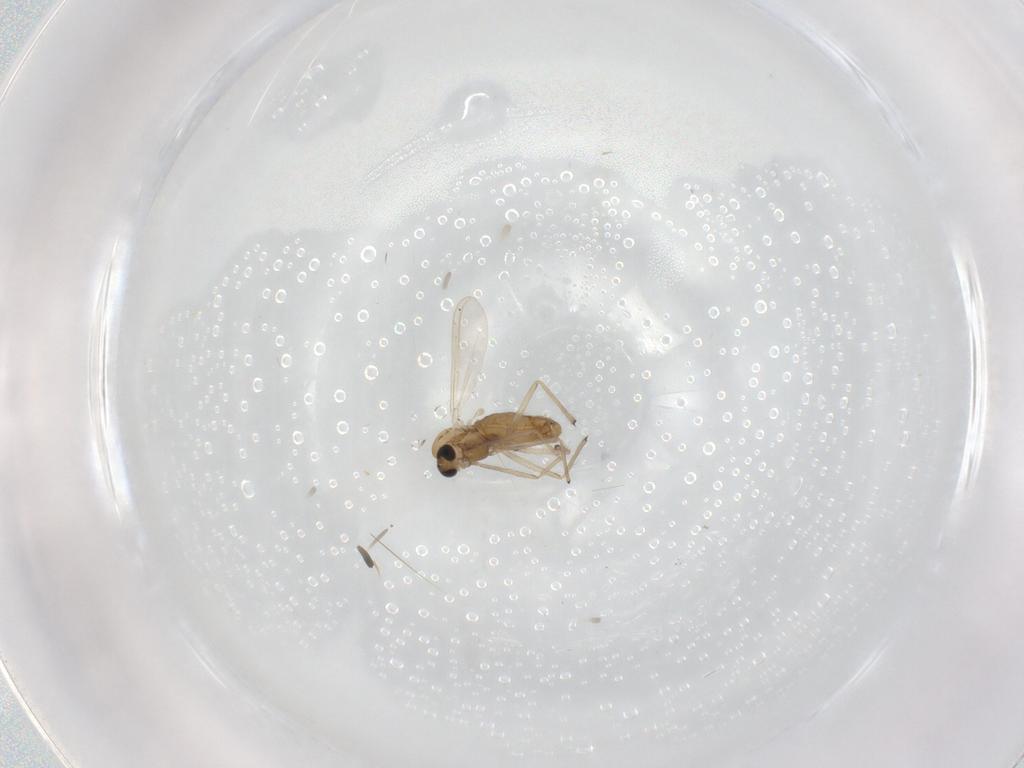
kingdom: Animalia
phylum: Arthropoda
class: Insecta
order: Diptera
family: Chironomidae
